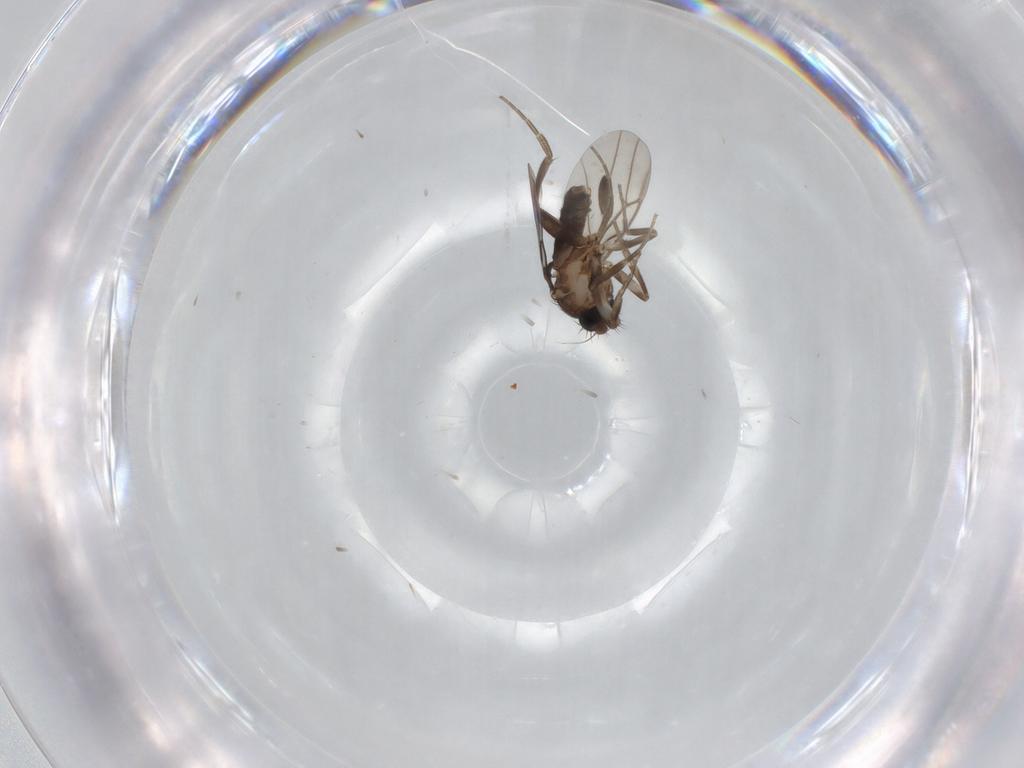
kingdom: Animalia
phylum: Arthropoda
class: Insecta
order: Diptera
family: Phoridae
